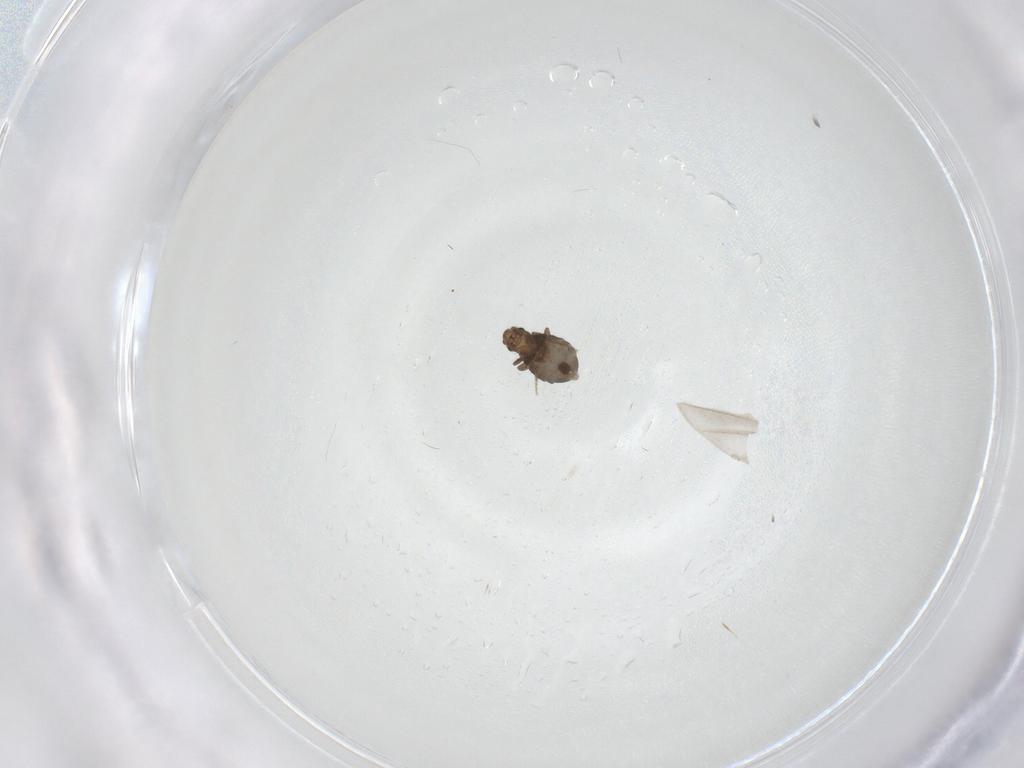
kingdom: Animalia
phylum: Arthropoda
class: Insecta
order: Diptera
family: Phoridae
